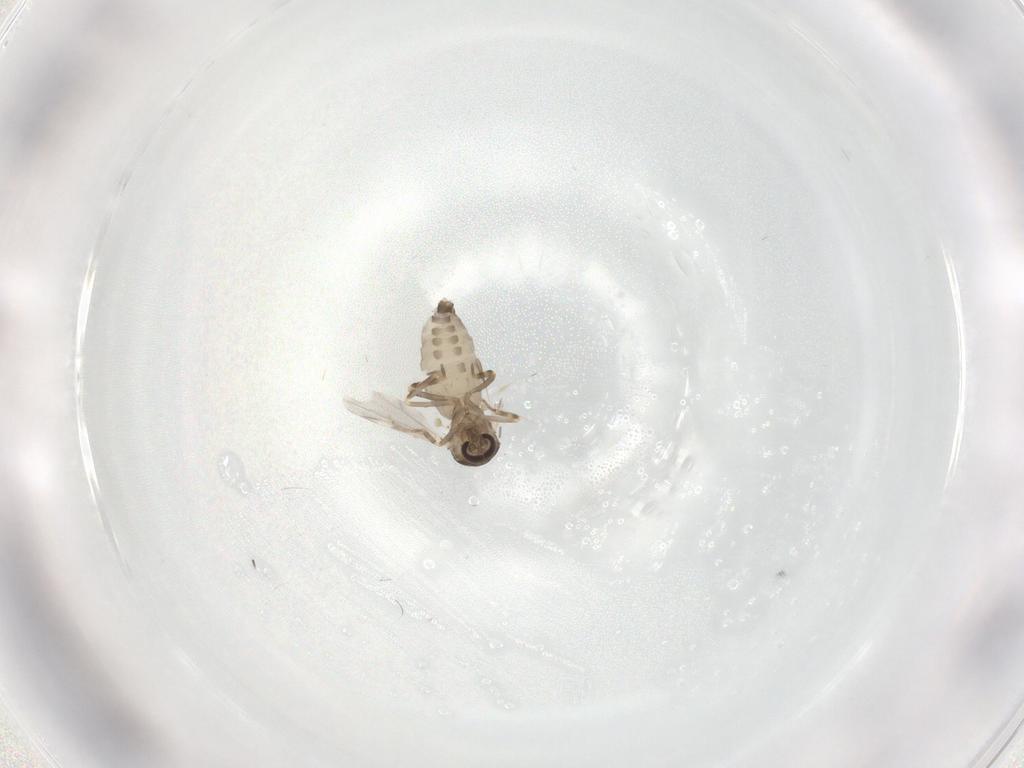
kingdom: Animalia
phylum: Arthropoda
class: Insecta
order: Diptera
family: Ceratopogonidae
